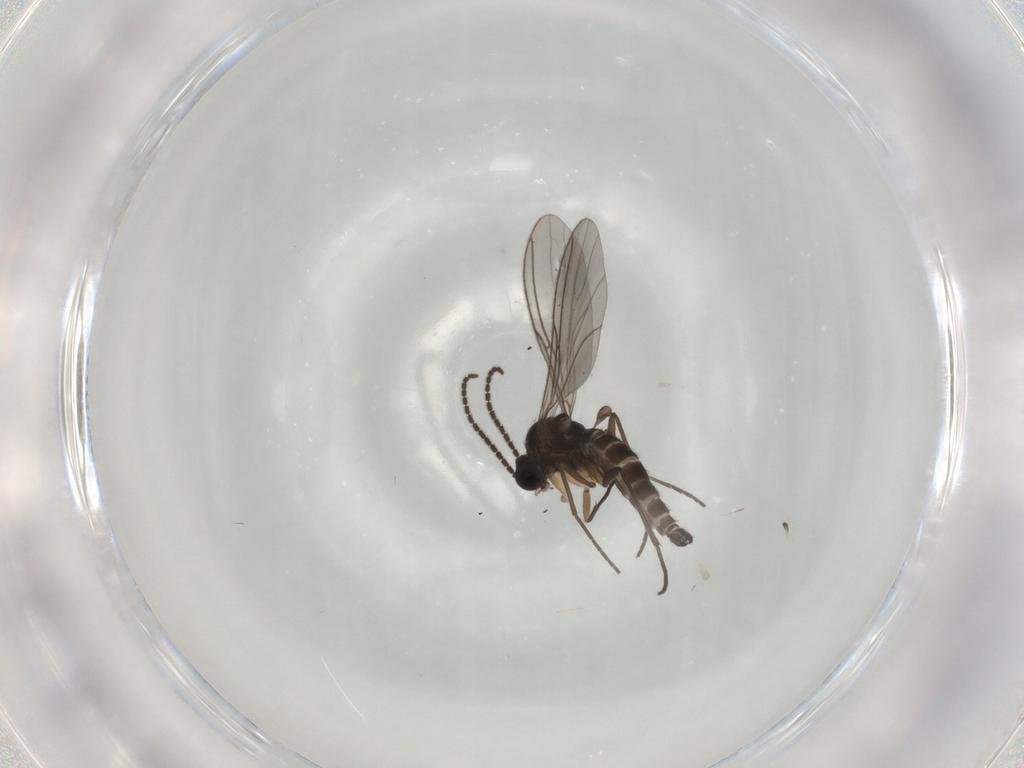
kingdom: Animalia
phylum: Arthropoda
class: Insecta
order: Diptera
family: Sciaridae
